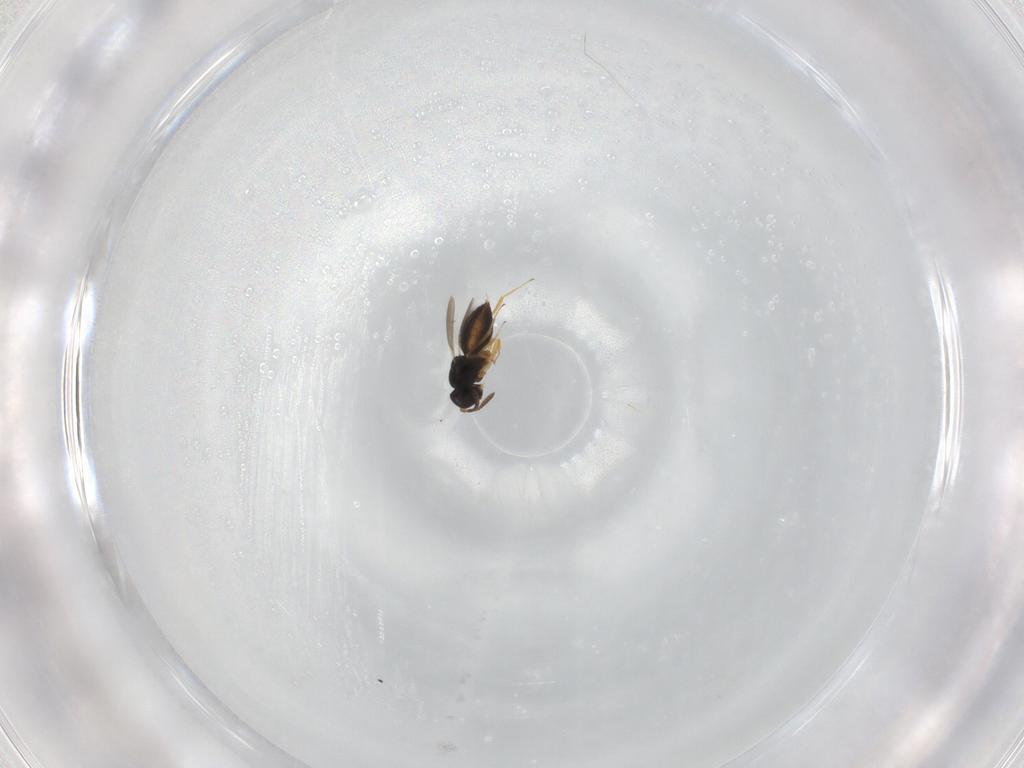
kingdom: Animalia
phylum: Arthropoda
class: Insecta
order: Hymenoptera
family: Scelionidae
